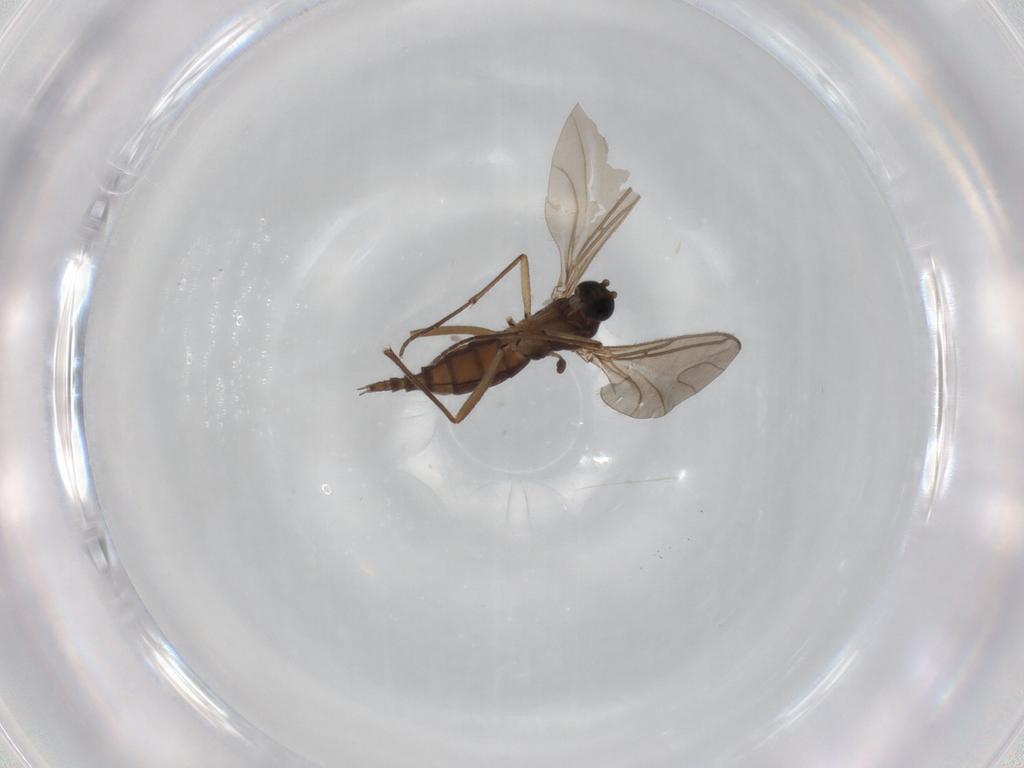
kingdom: Animalia
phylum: Arthropoda
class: Insecta
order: Diptera
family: Sciaridae
